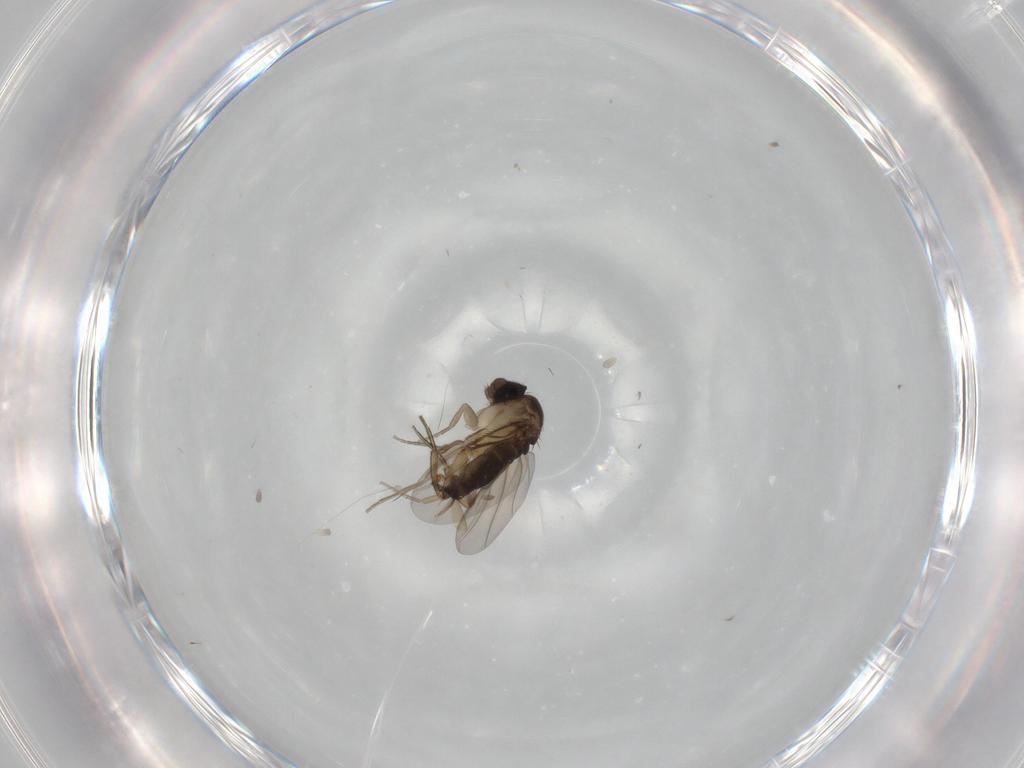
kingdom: Animalia
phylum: Arthropoda
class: Insecta
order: Diptera
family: Phoridae
